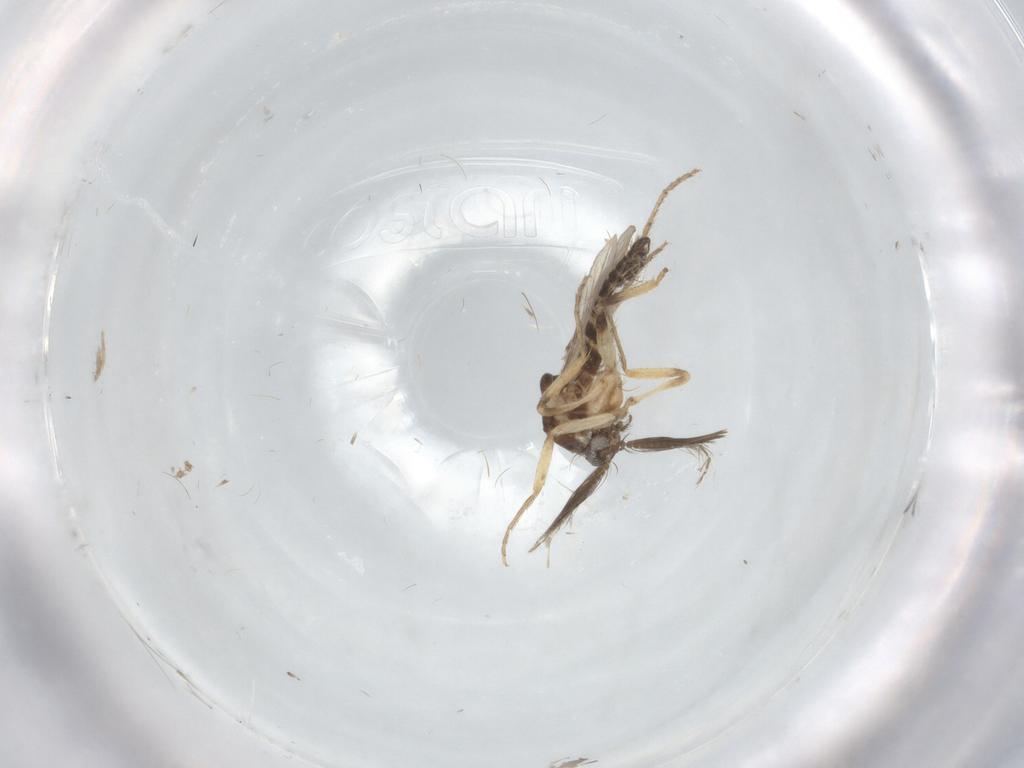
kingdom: Animalia
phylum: Arthropoda
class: Insecta
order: Diptera
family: Ceratopogonidae
